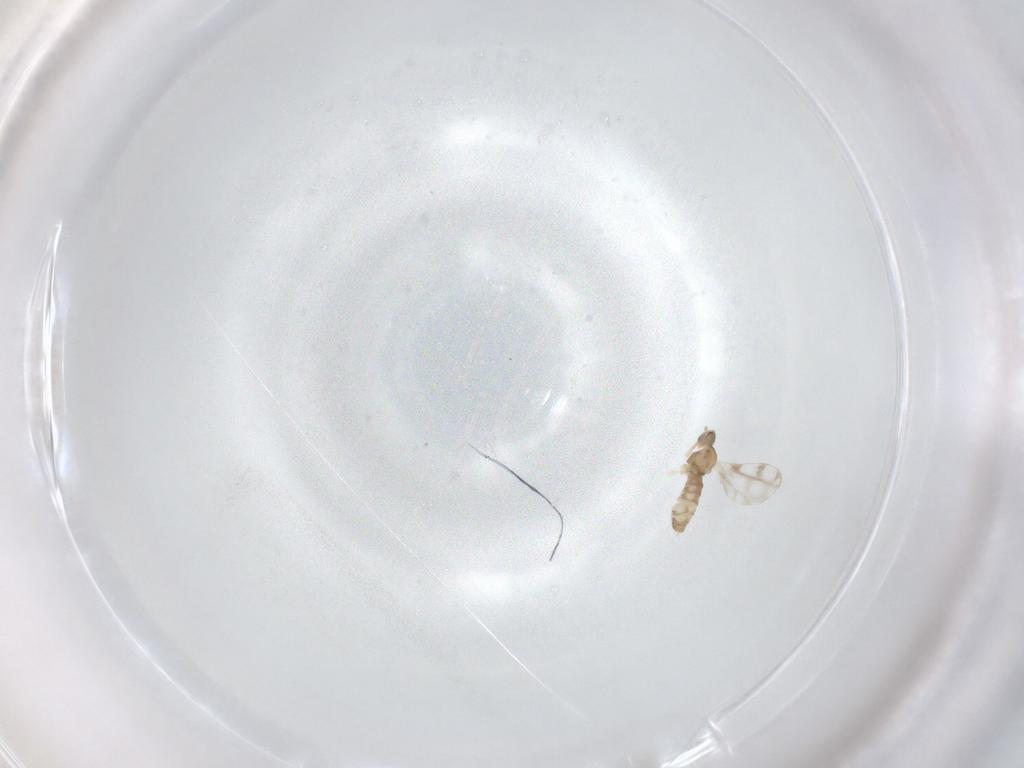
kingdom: Animalia
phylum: Arthropoda
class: Insecta
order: Diptera
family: Cecidomyiidae
